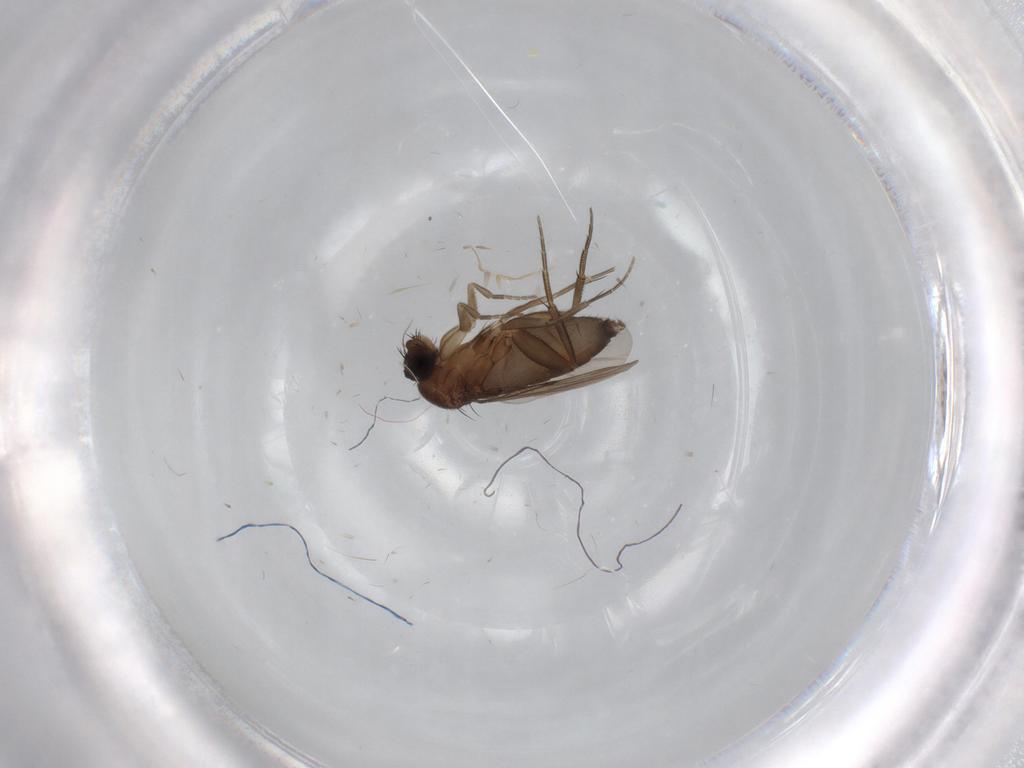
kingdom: Animalia
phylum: Arthropoda
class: Insecta
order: Diptera
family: Phoridae
